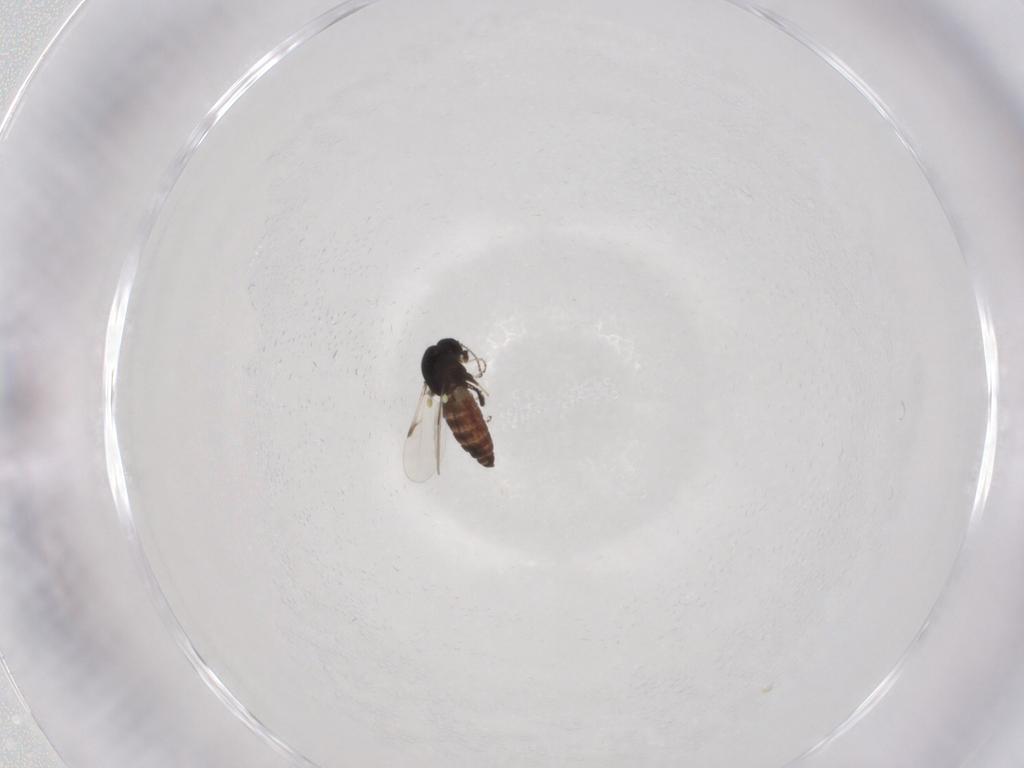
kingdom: Animalia
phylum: Arthropoda
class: Insecta
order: Diptera
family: Ceratopogonidae
